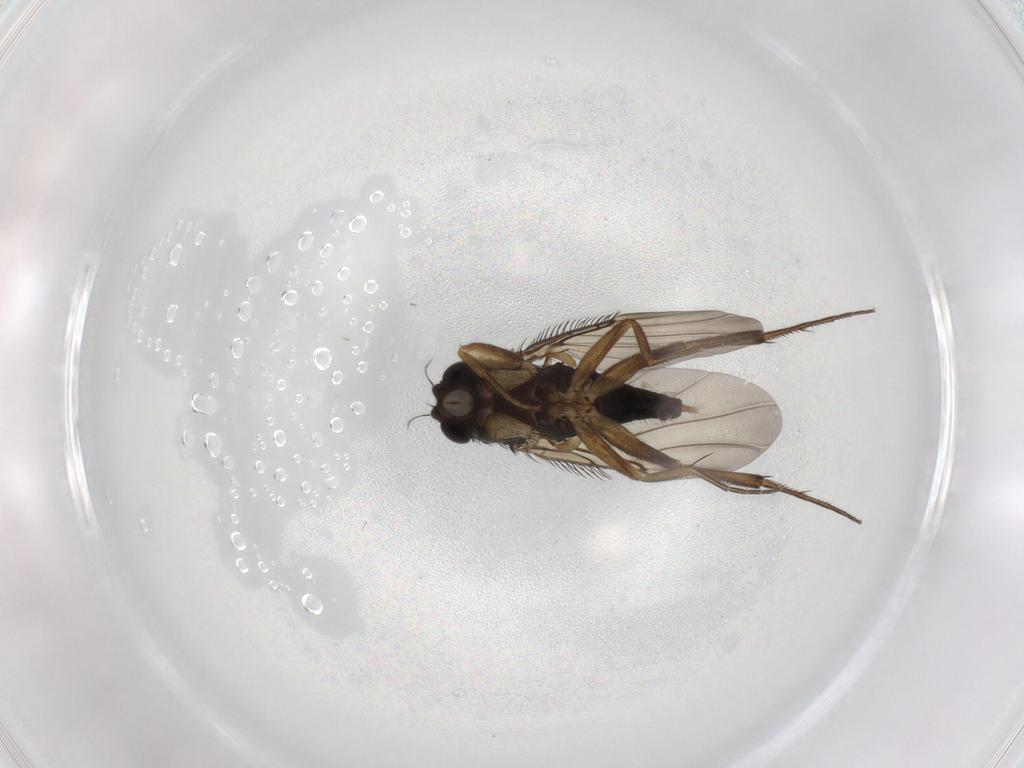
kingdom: Animalia
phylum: Arthropoda
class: Insecta
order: Diptera
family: Phoridae
